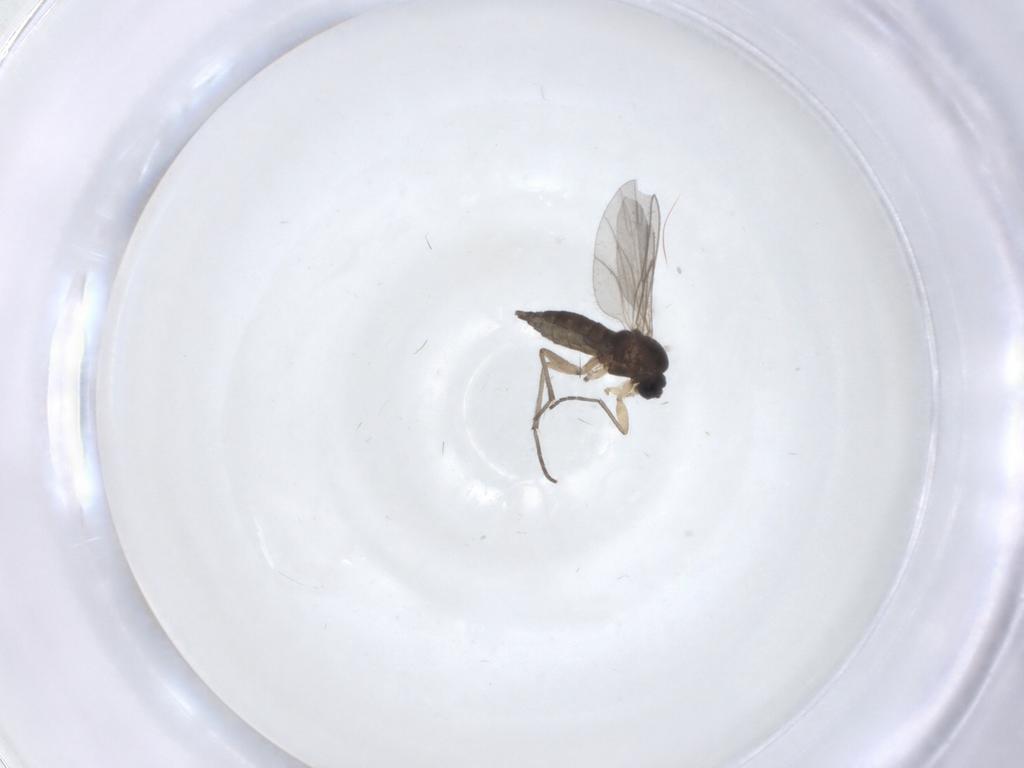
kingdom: Animalia
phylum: Arthropoda
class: Insecta
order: Diptera
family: Sciaridae
